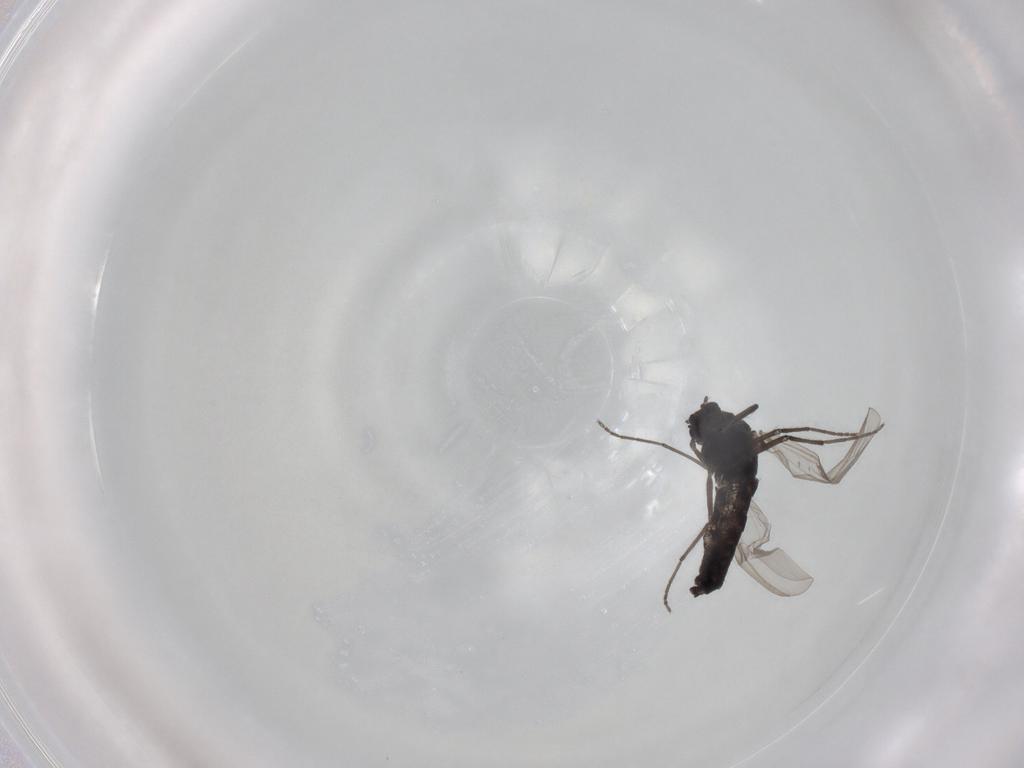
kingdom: Animalia
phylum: Arthropoda
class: Insecta
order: Diptera
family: Chironomidae
